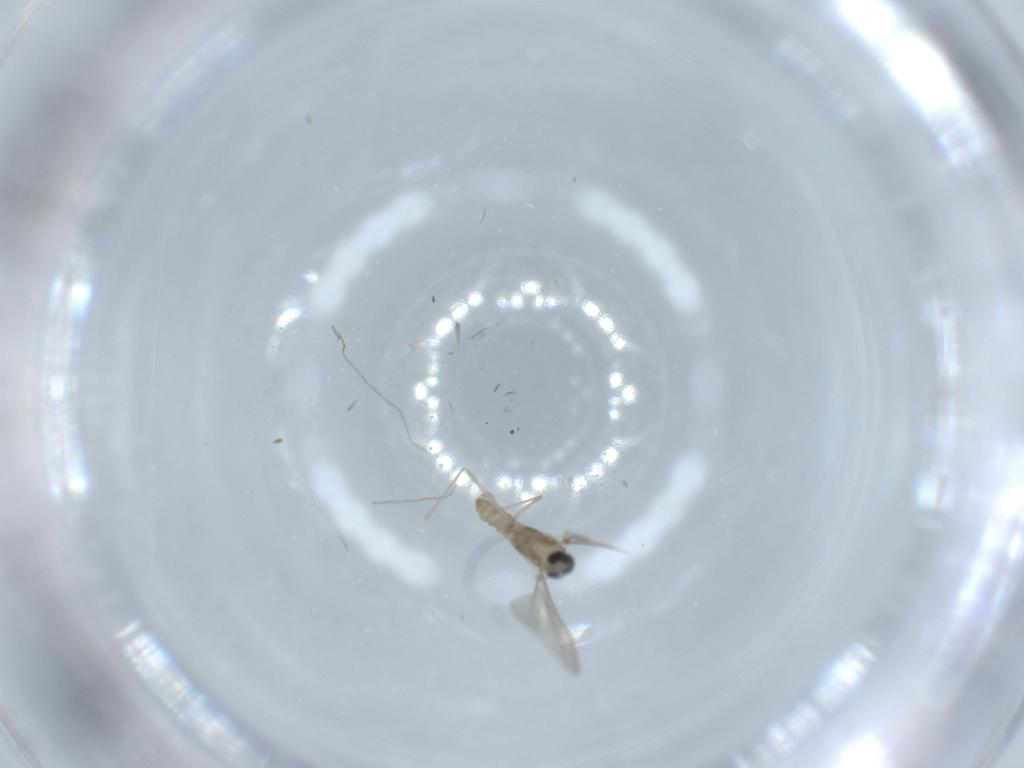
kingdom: Animalia
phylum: Arthropoda
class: Insecta
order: Diptera
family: Cecidomyiidae
